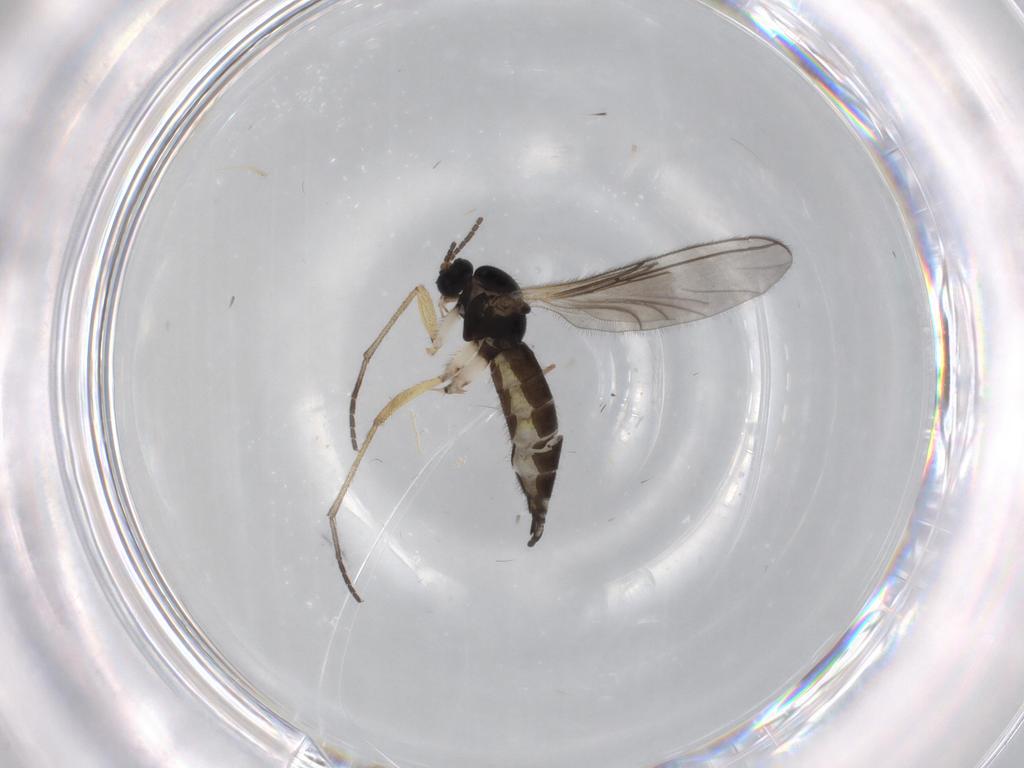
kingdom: Animalia
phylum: Arthropoda
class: Insecta
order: Diptera
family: Sciaridae
